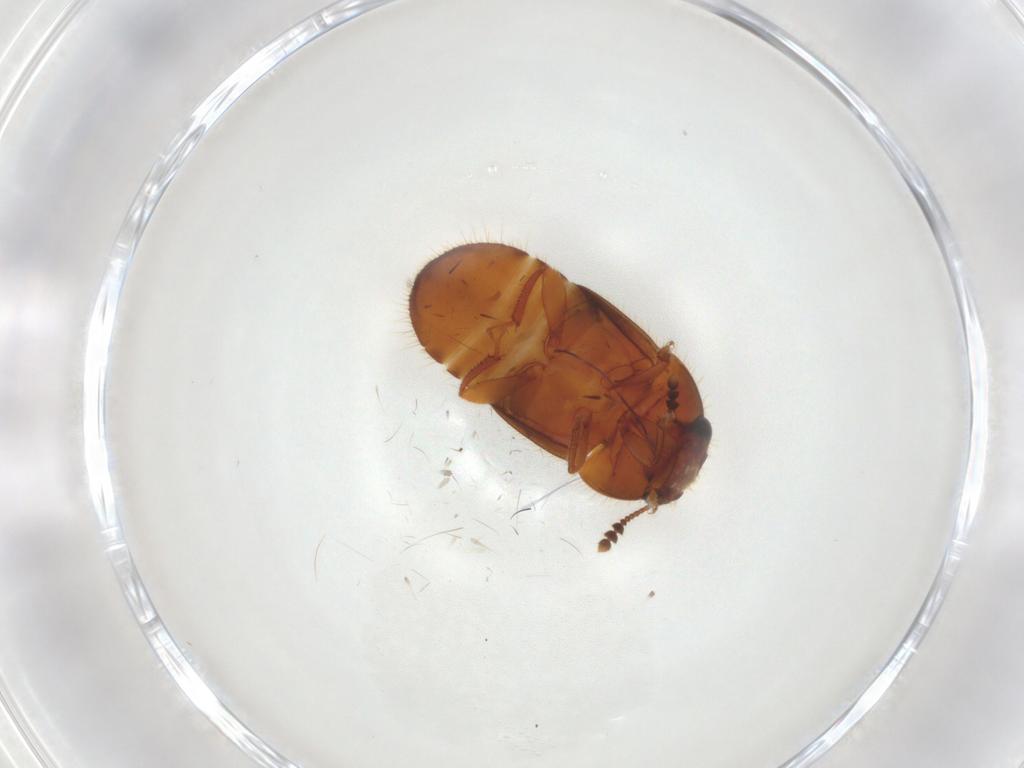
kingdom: Animalia
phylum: Arthropoda
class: Insecta
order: Coleoptera
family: Nitidulidae
